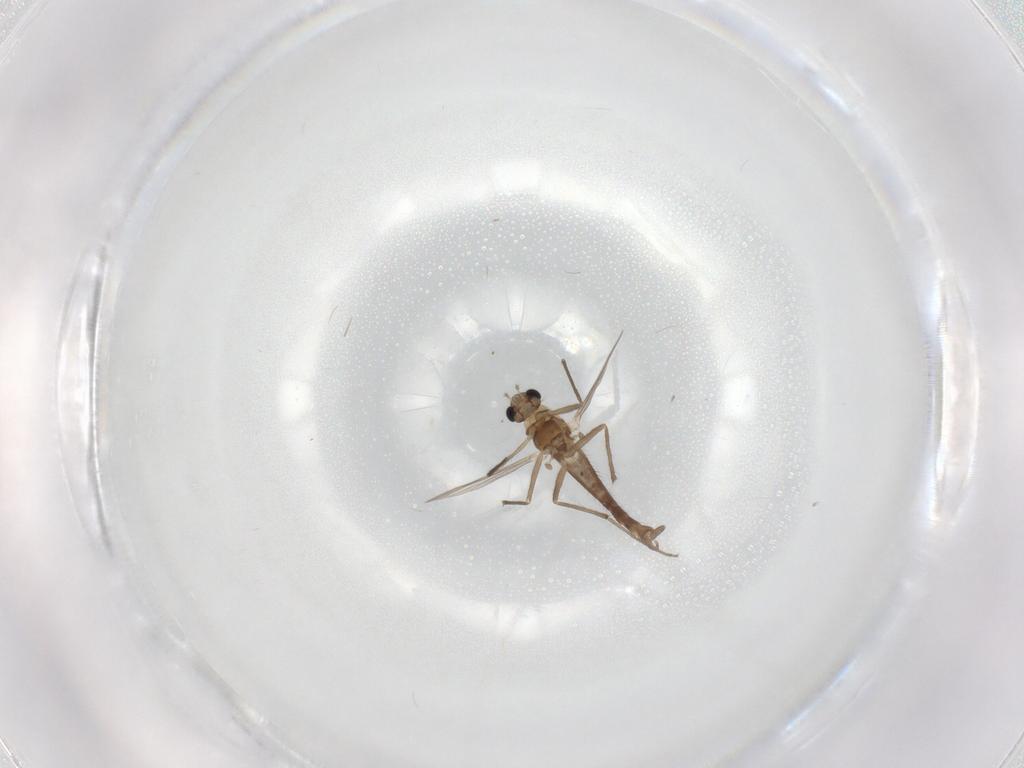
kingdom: Animalia
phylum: Arthropoda
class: Insecta
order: Diptera
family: Chironomidae
